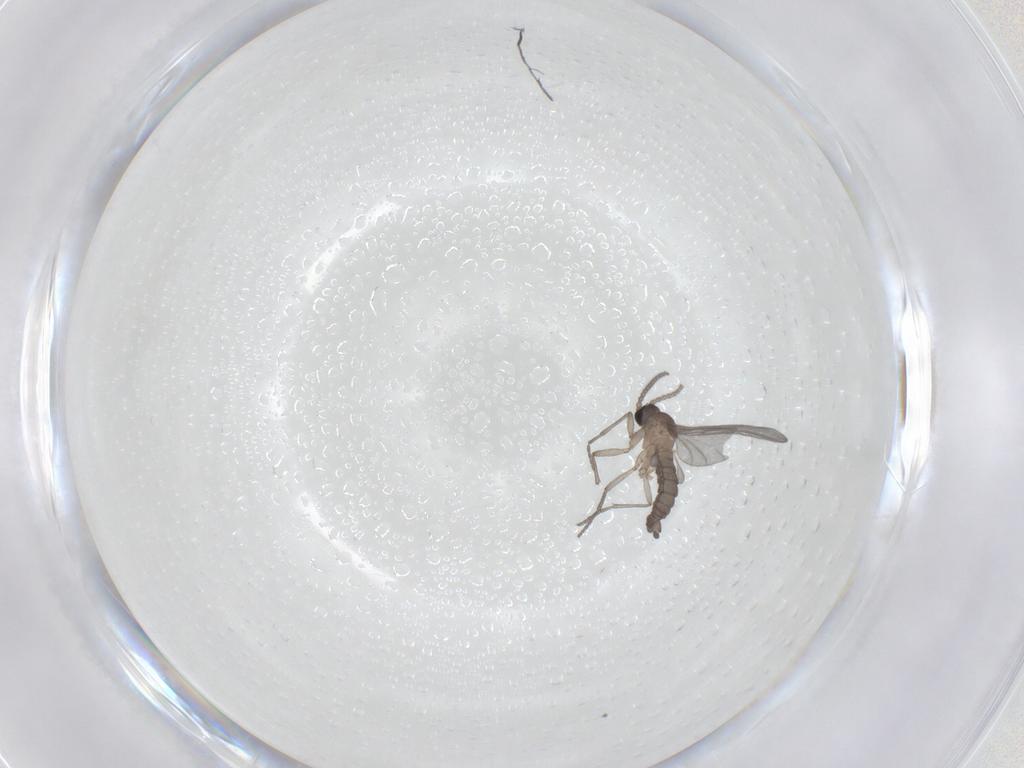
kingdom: Animalia
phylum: Arthropoda
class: Insecta
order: Diptera
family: Sciaridae
